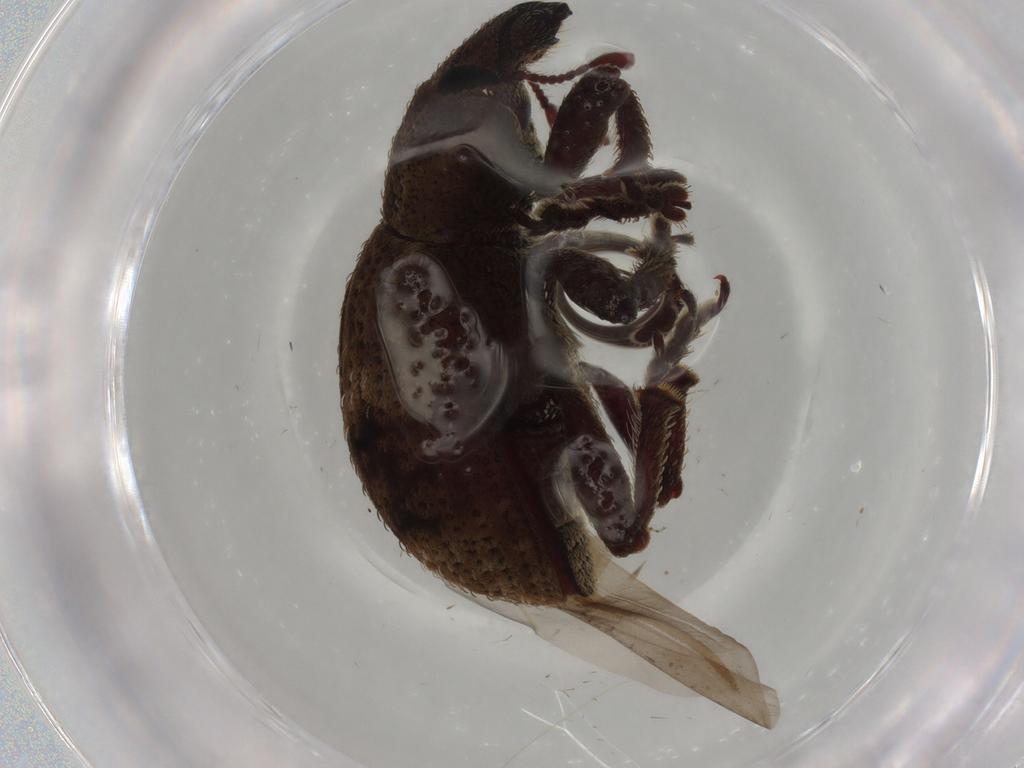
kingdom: Animalia
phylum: Arthropoda
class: Insecta
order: Coleoptera
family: Curculionidae
